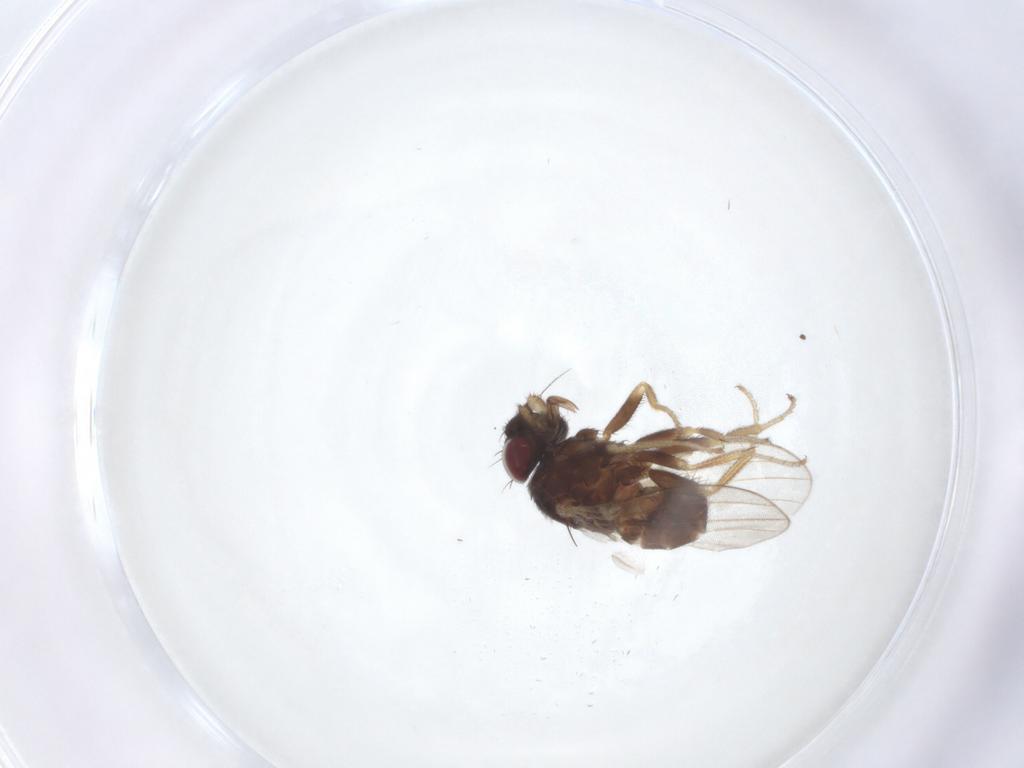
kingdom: Animalia
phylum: Arthropoda
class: Insecta
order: Diptera
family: Milichiidae
